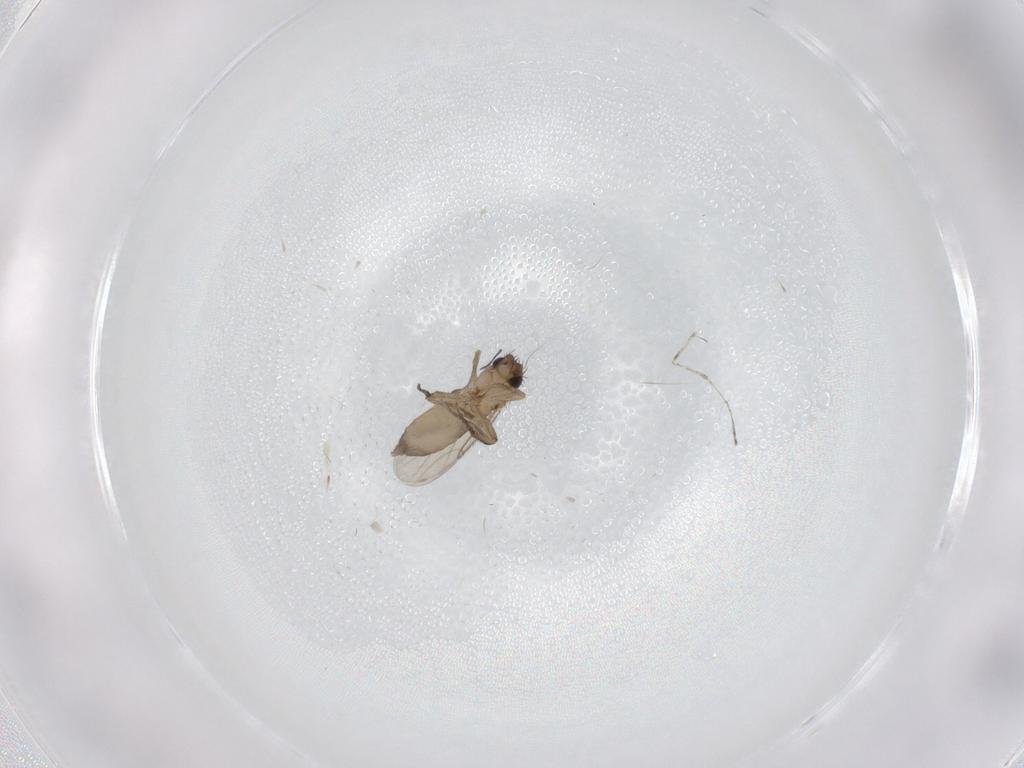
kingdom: Animalia
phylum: Arthropoda
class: Insecta
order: Diptera
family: Phoridae
